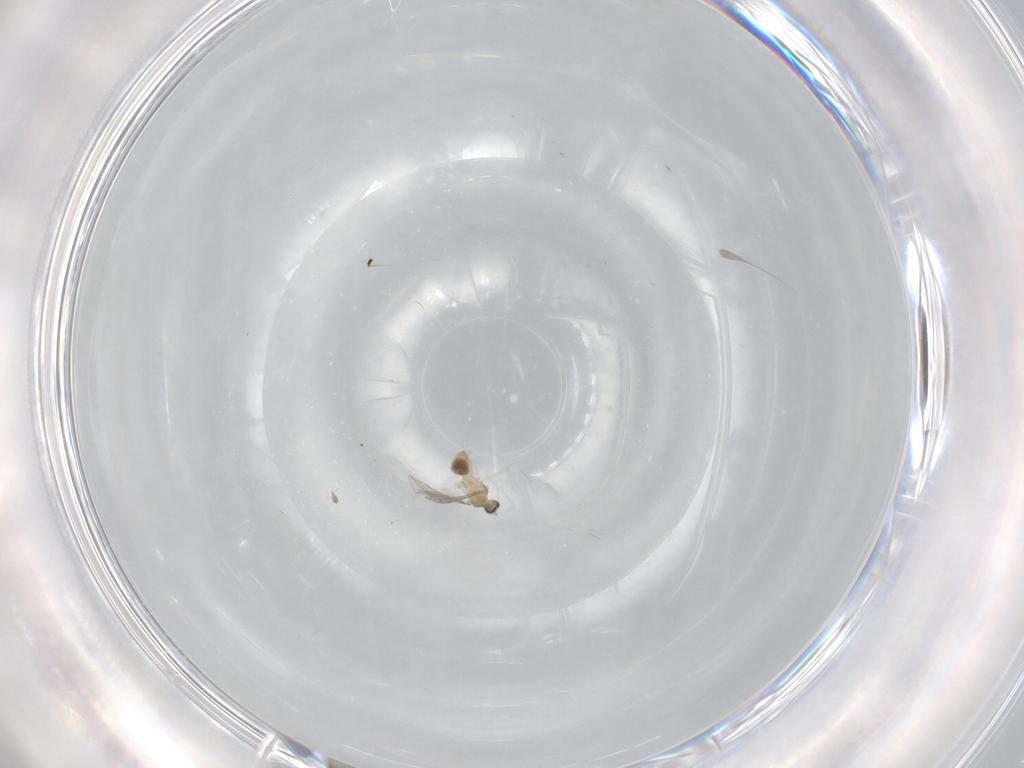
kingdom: Animalia
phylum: Arthropoda
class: Insecta
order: Diptera
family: Cecidomyiidae
